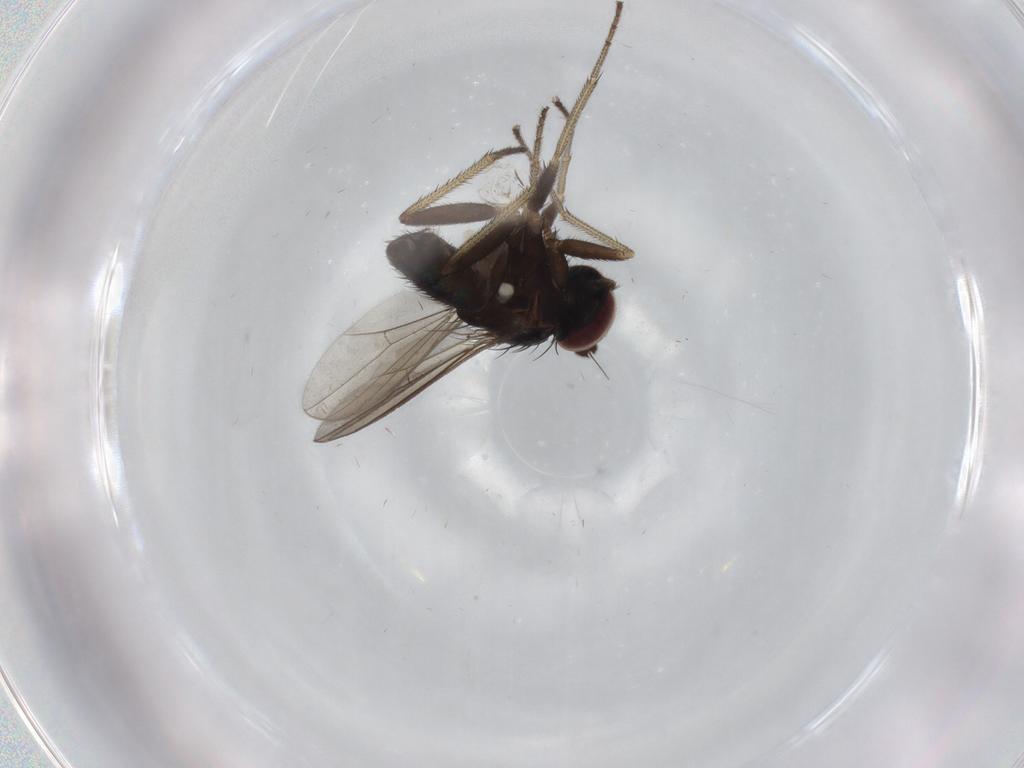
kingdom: Animalia
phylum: Arthropoda
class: Insecta
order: Diptera
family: Dolichopodidae
